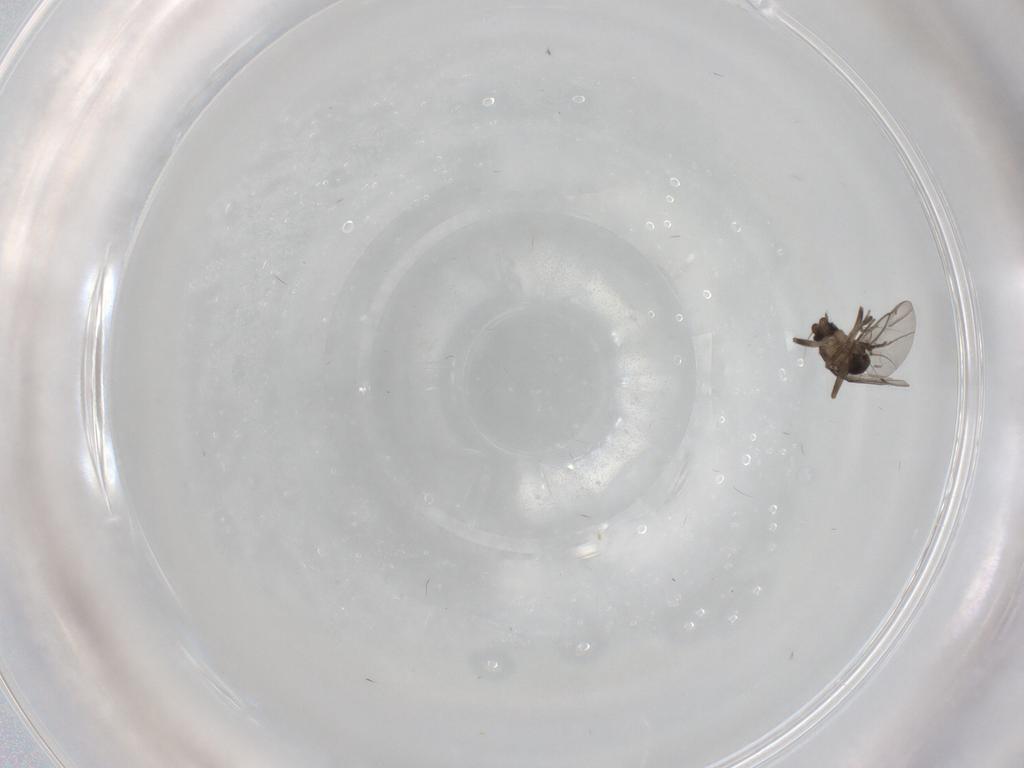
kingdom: Animalia
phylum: Arthropoda
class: Insecta
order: Diptera
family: Phoridae
